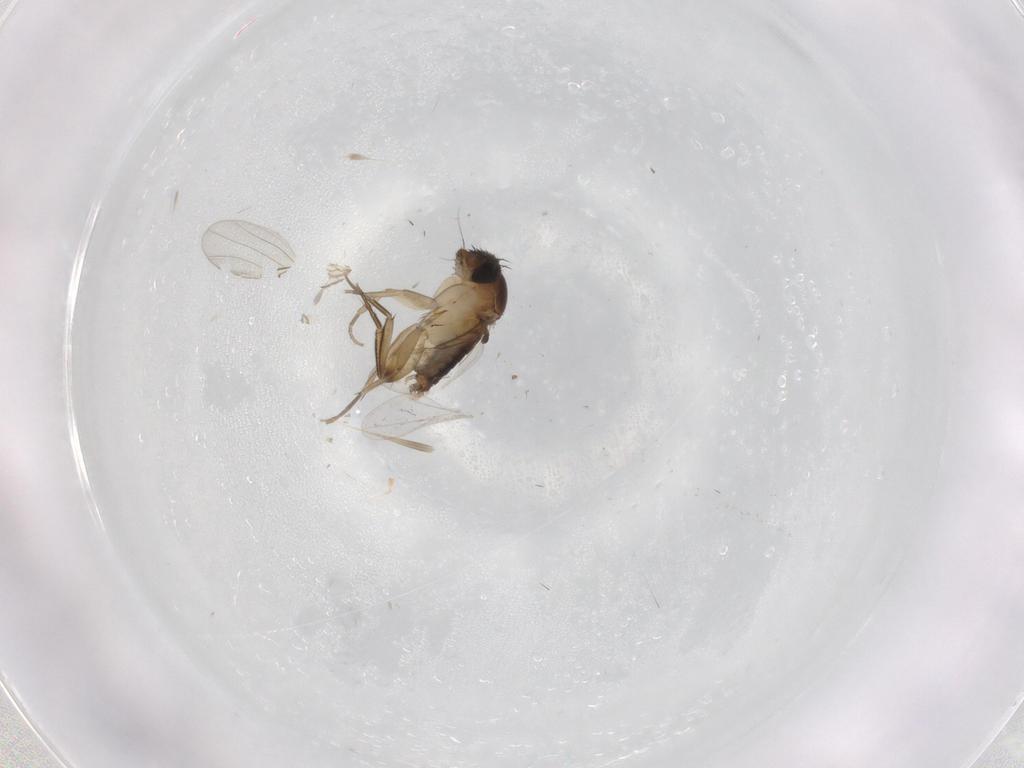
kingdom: Animalia
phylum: Arthropoda
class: Insecta
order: Diptera
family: Phoridae
